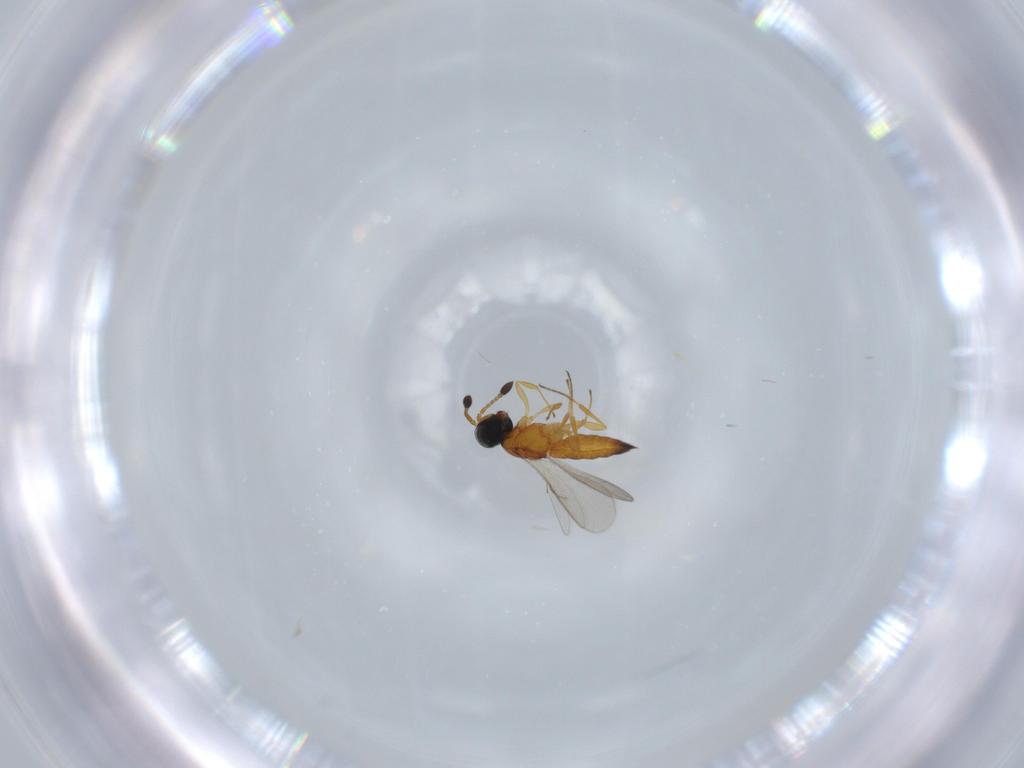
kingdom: Animalia
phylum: Arthropoda
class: Insecta
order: Hymenoptera
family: Scelionidae
